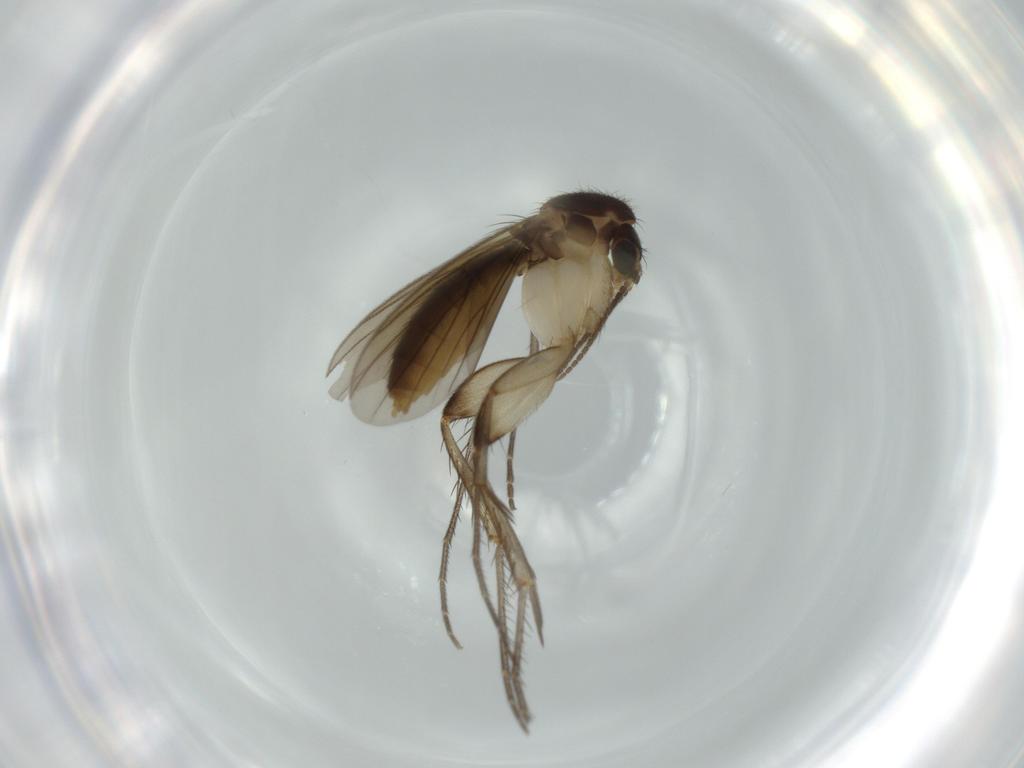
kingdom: Animalia
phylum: Arthropoda
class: Insecta
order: Diptera
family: Mycetophilidae
